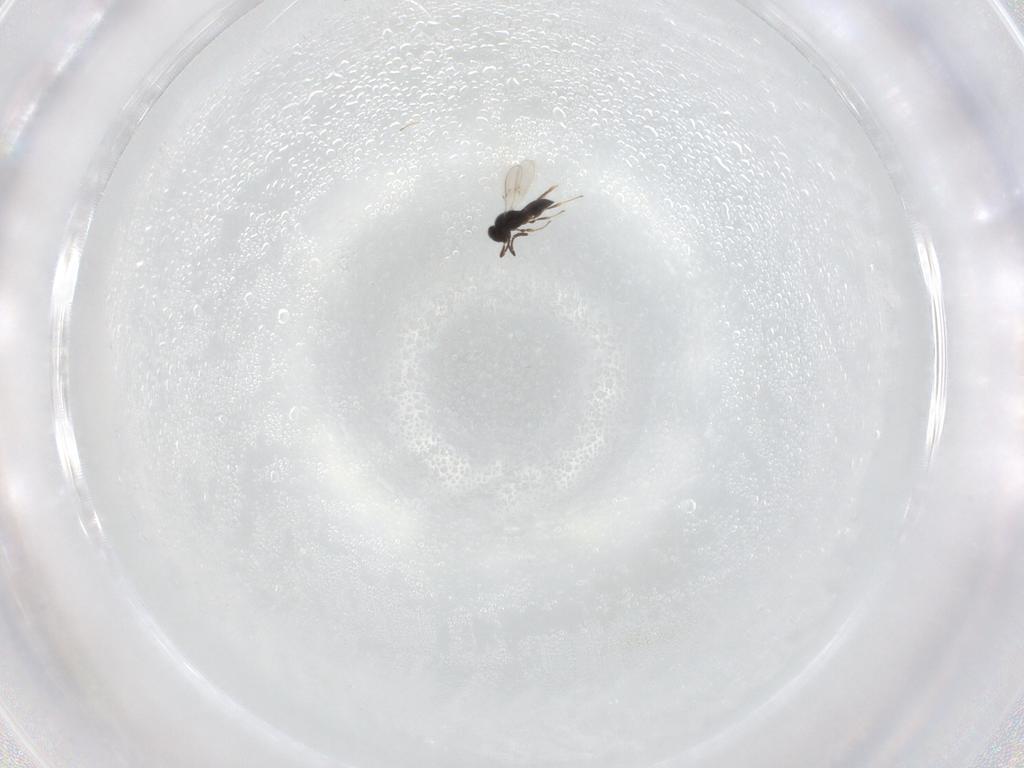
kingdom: Animalia
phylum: Arthropoda
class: Insecta
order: Hymenoptera
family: Scelionidae
